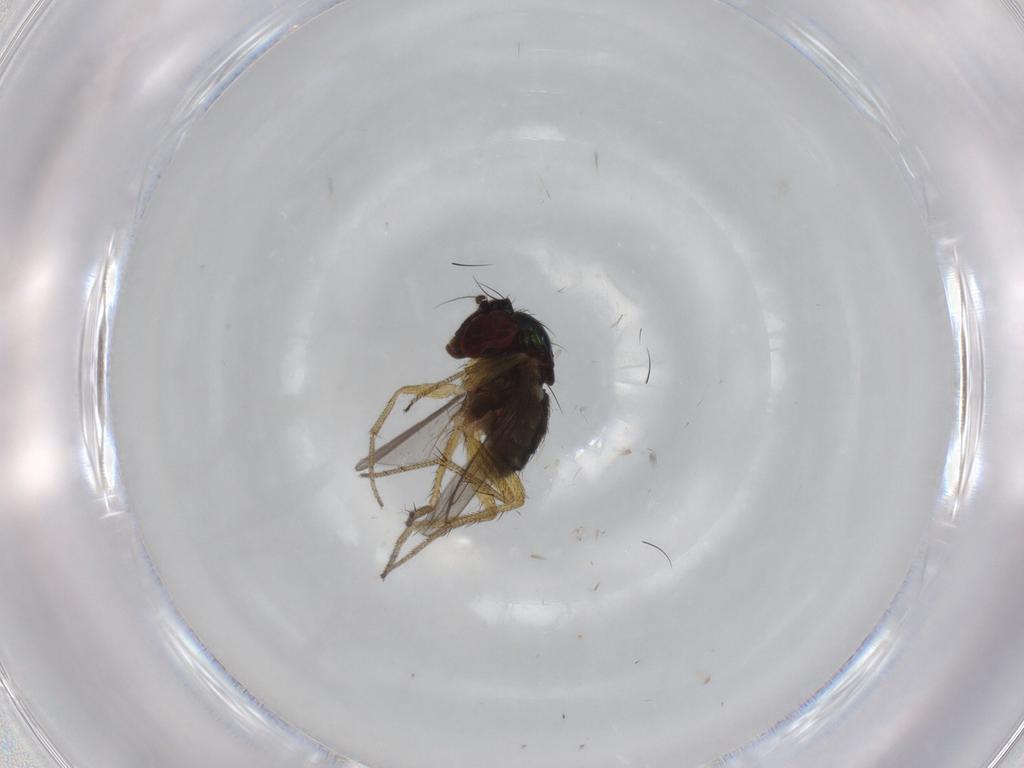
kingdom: Animalia
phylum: Arthropoda
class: Insecta
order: Diptera
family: Dolichopodidae
